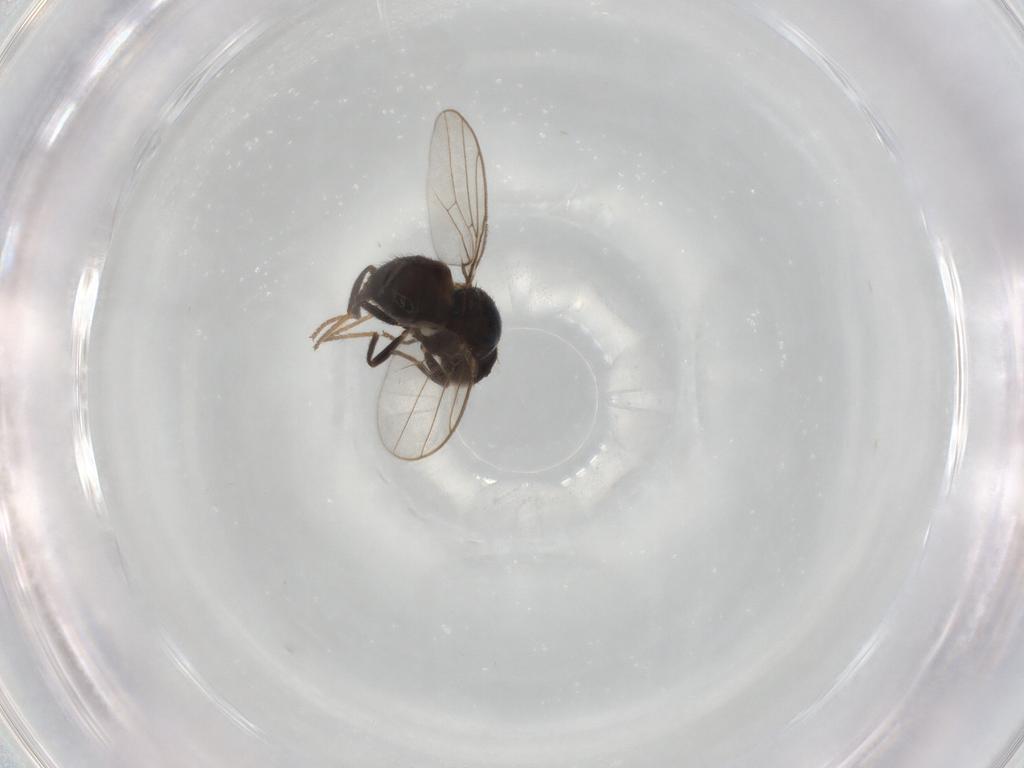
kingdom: Animalia
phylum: Arthropoda
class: Insecta
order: Diptera
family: Chloropidae
